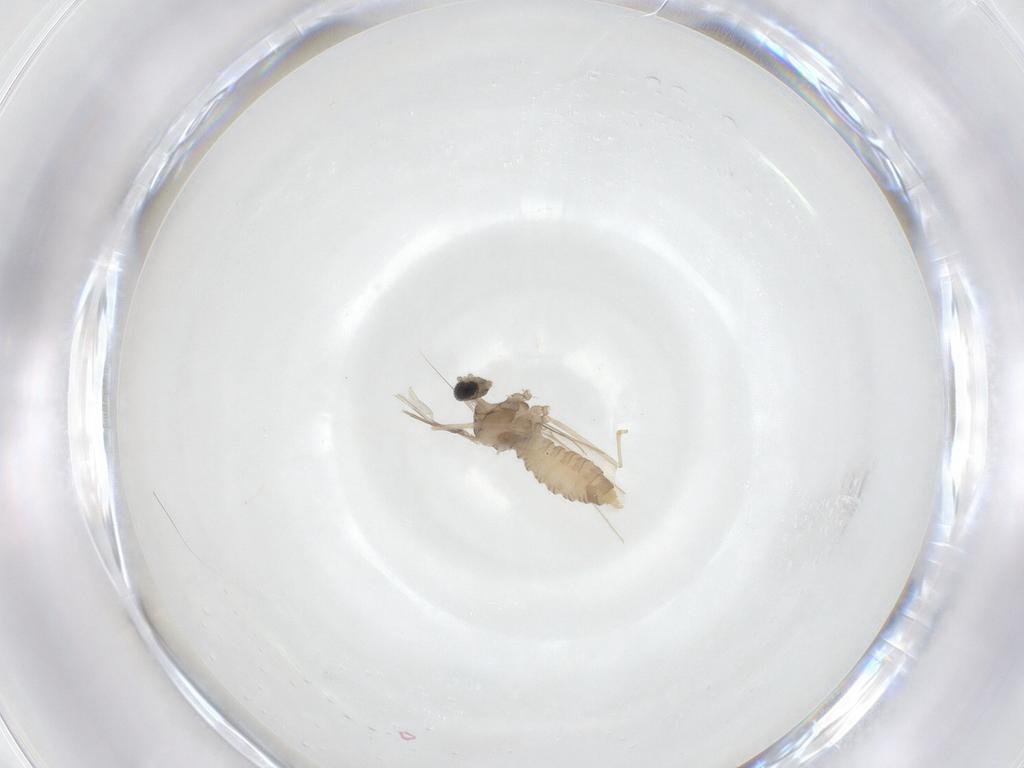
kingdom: Animalia
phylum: Arthropoda
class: Insecta
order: Diptera
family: Cecidomyiidae
